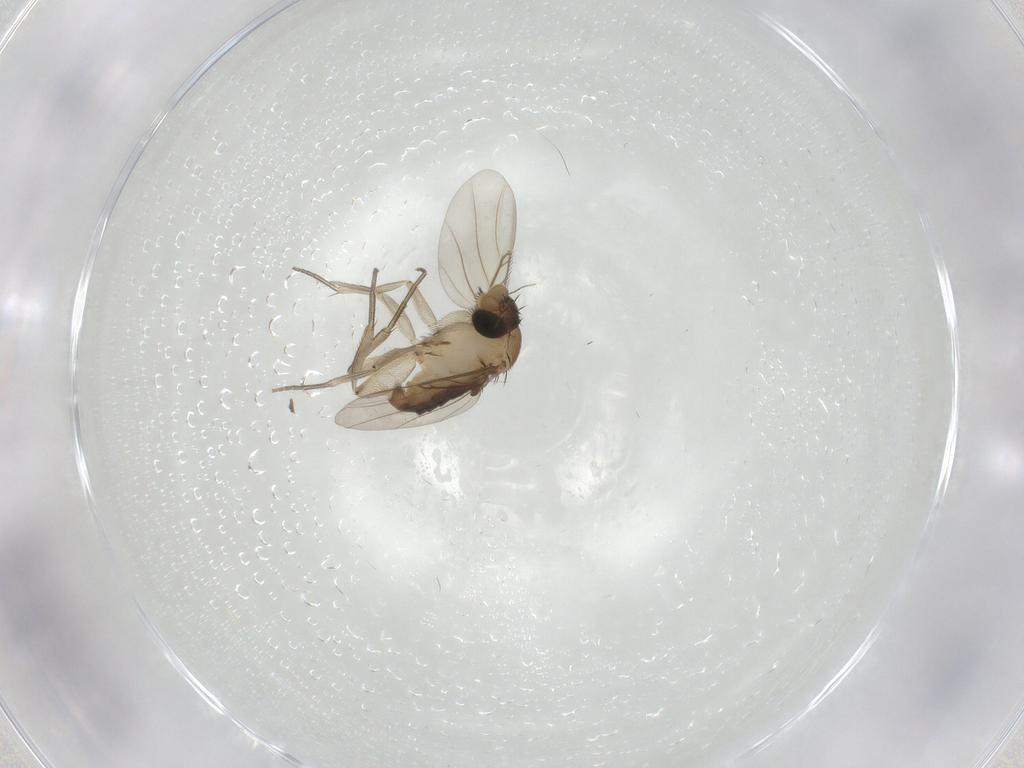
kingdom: Animalia
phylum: Arthropoda
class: Insecta
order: Diptera
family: Phoridae
